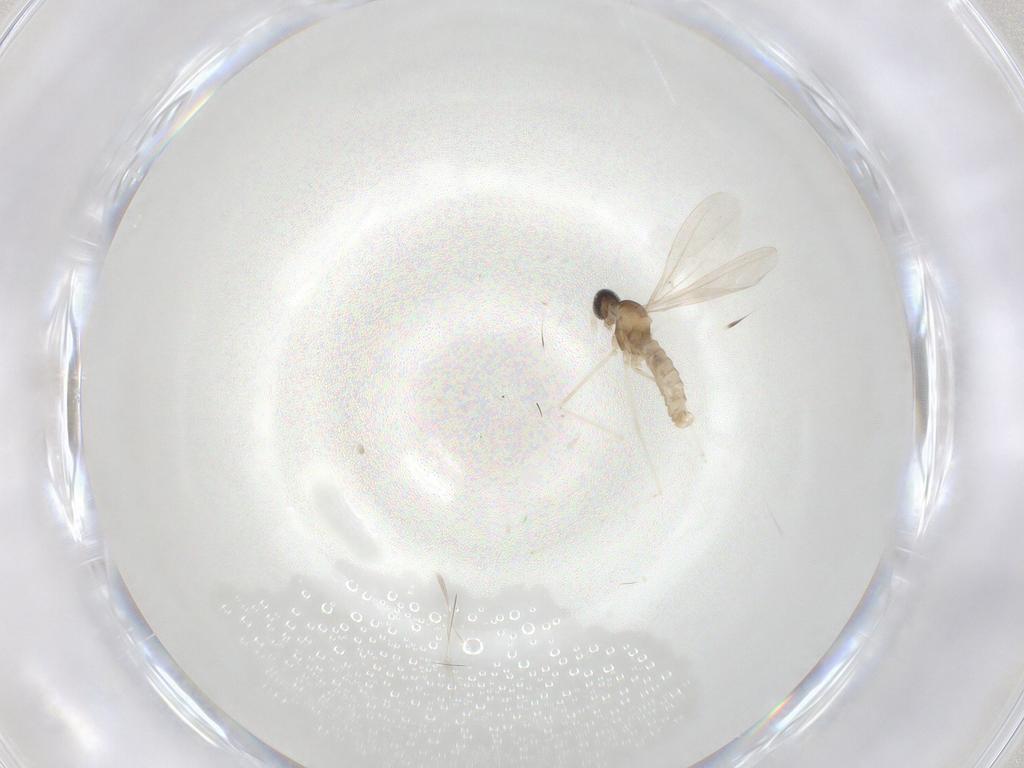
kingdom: Animalia
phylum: Arthropoda
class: Insecta
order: Diptera
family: Cecidomyiidae
